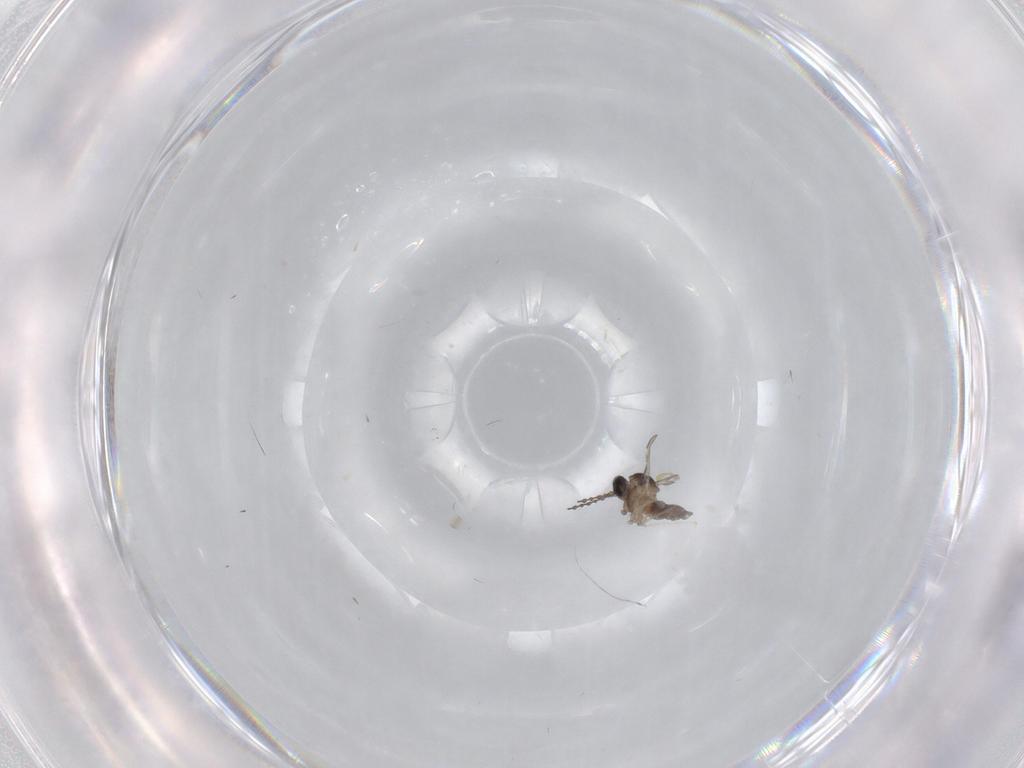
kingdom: Animalia
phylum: Arthropoda
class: Insecta
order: Diptera
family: Cecidomyiidae
